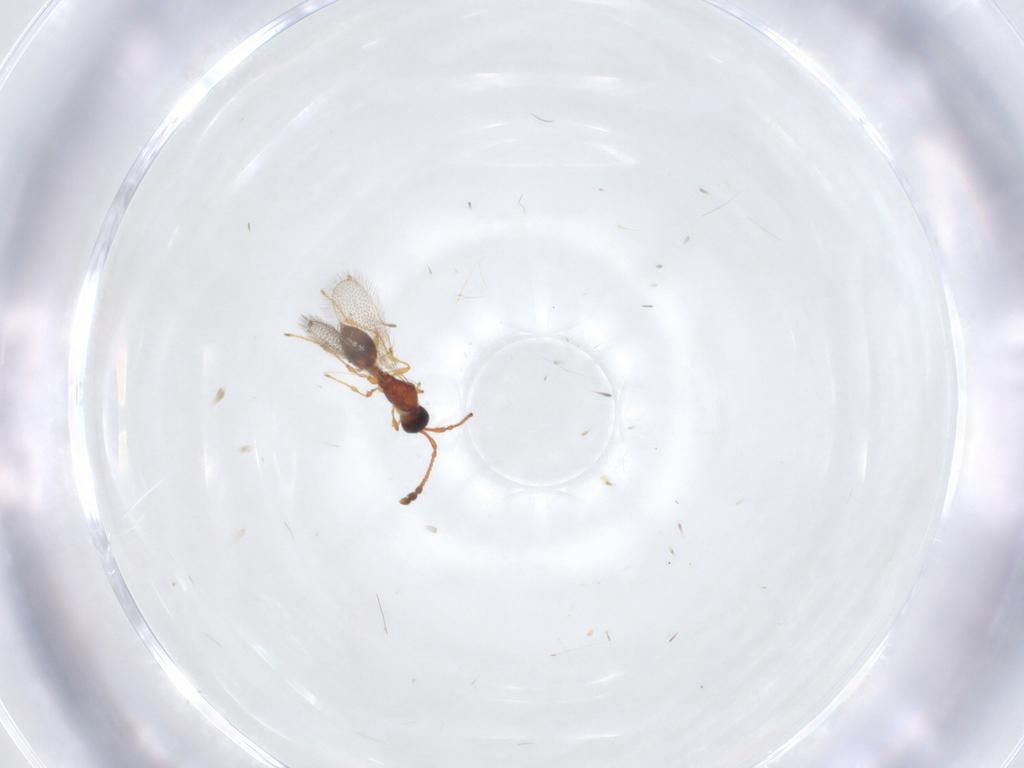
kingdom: Animalia
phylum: Arthropoda
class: Insecta
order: Hymenoptera
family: Diapriidae
